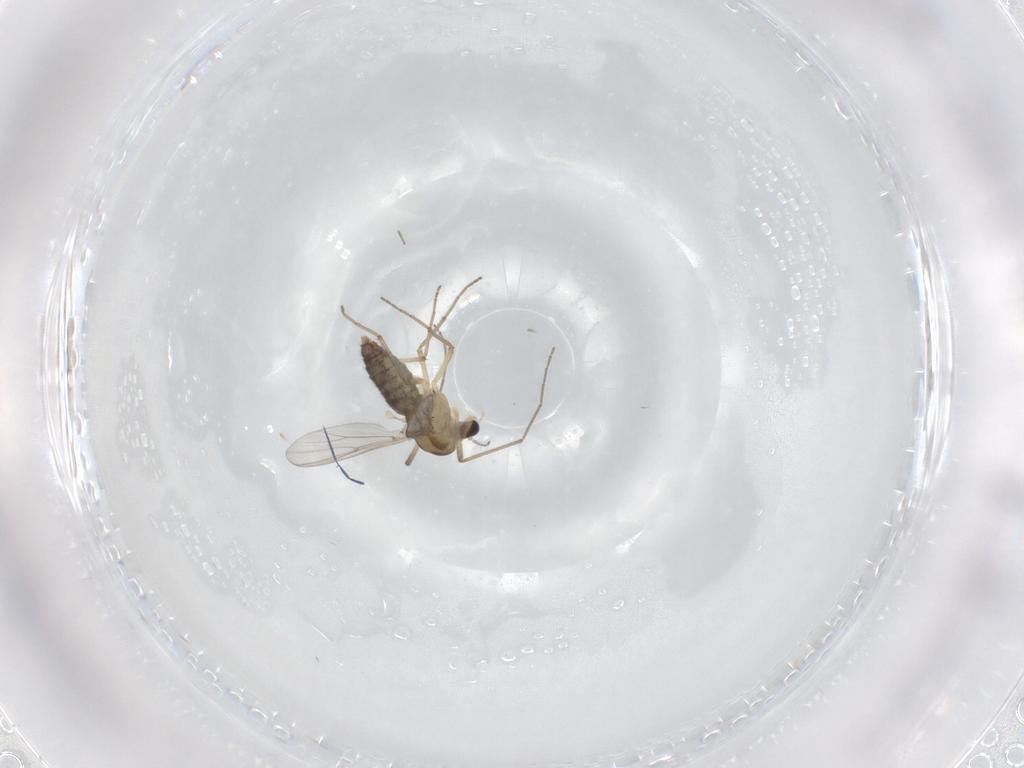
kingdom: Animalia
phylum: Arthropoda
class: Insecta
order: Diptera
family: Chironomidae
